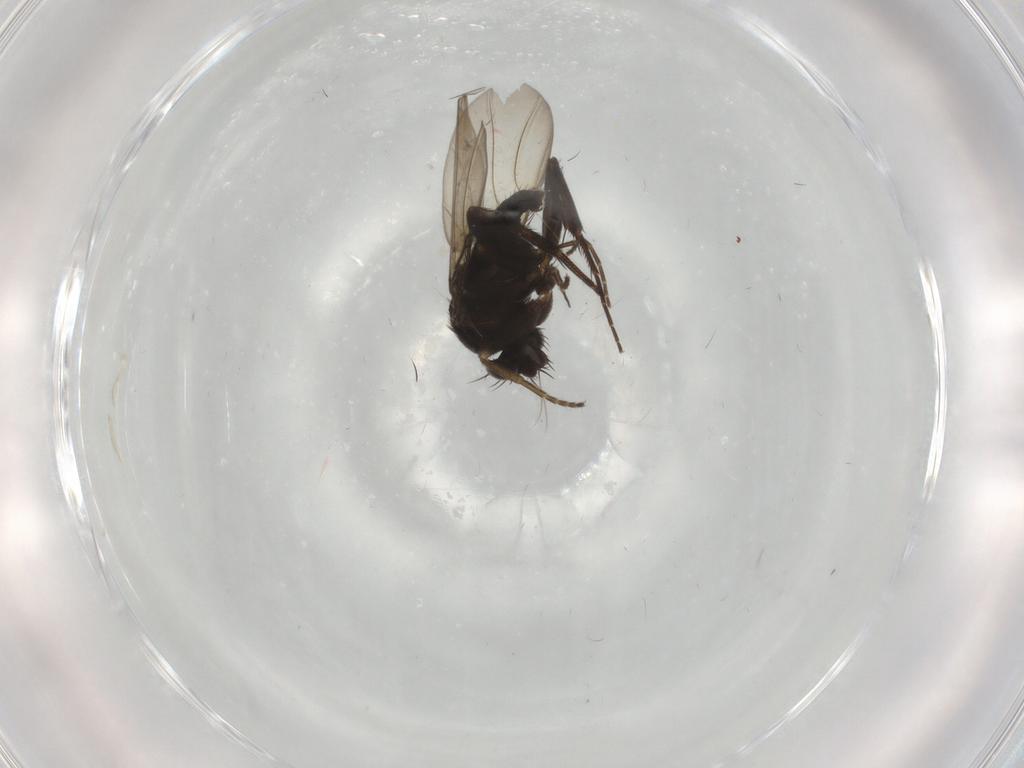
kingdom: Animalia
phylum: Arthropoda
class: Insecta
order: Diptera
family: Phoridae
